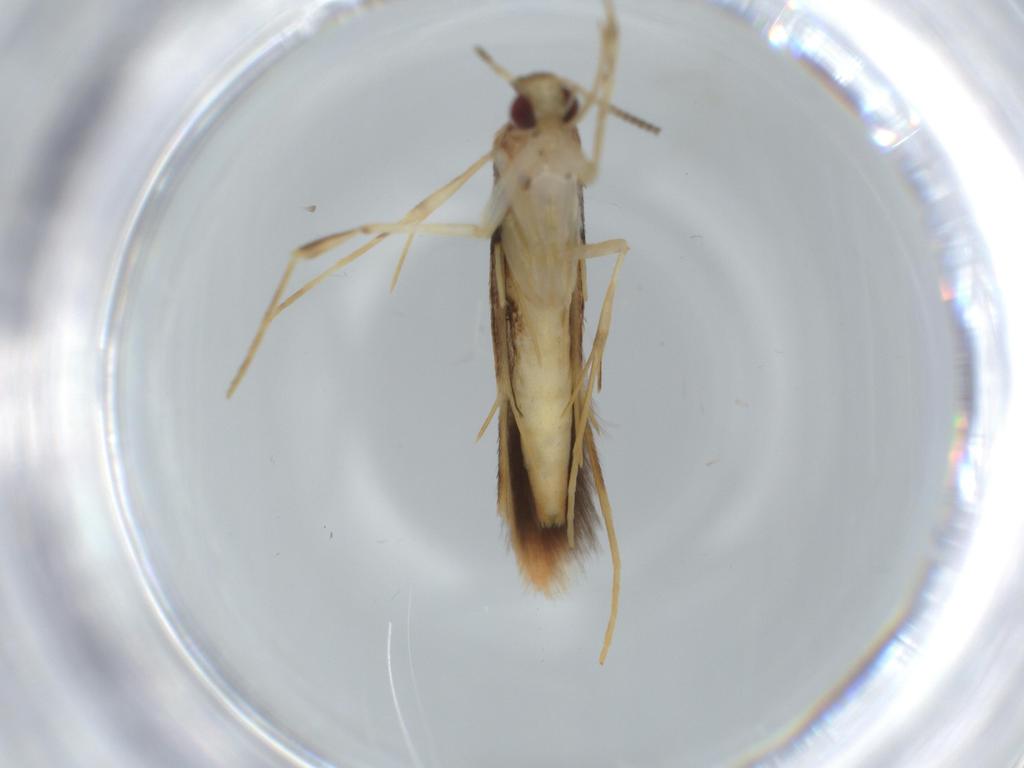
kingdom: Animalia
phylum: Arthropoda
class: Insecta
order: Lepidoptera
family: Gracillariidae
